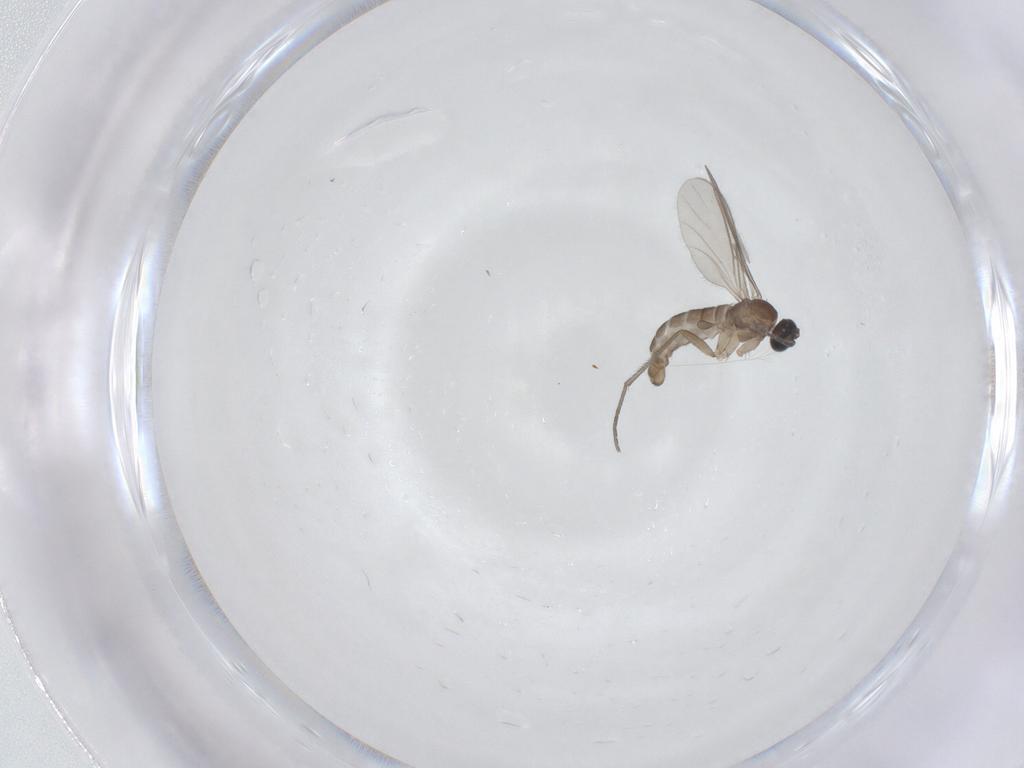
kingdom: Animalia
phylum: Arthropoda
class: Insecta
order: Diptera
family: Sciaridae
